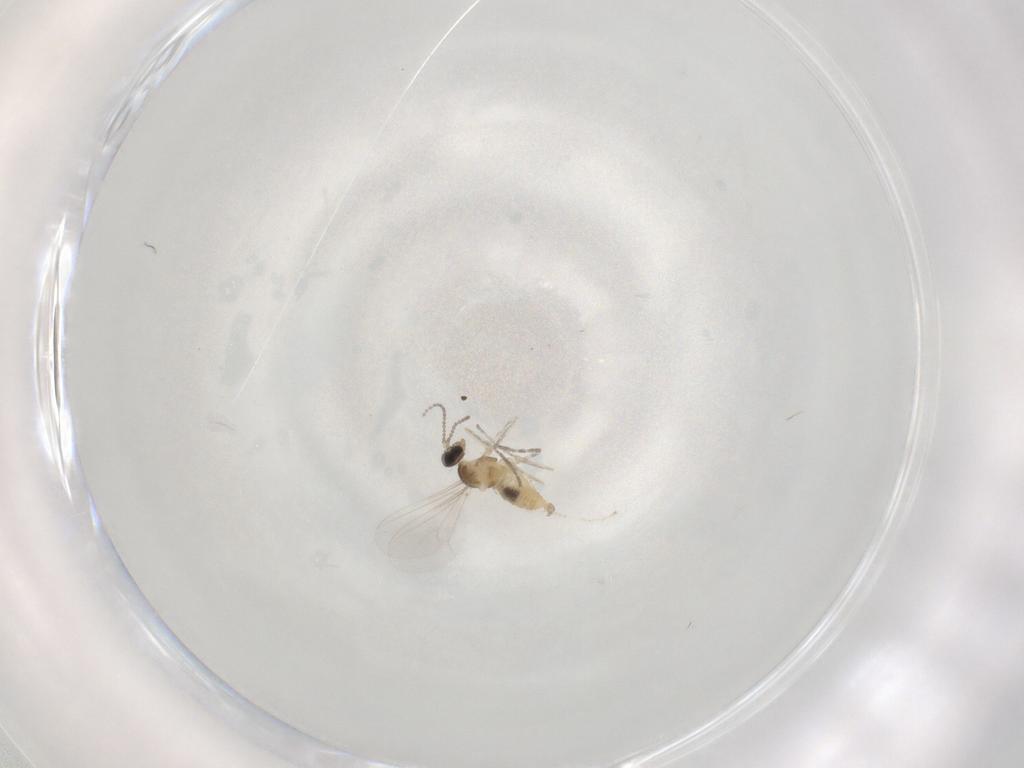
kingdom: Animalia
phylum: Arthropoda
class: Insecta
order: Diptera
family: Cecidomyiidae
